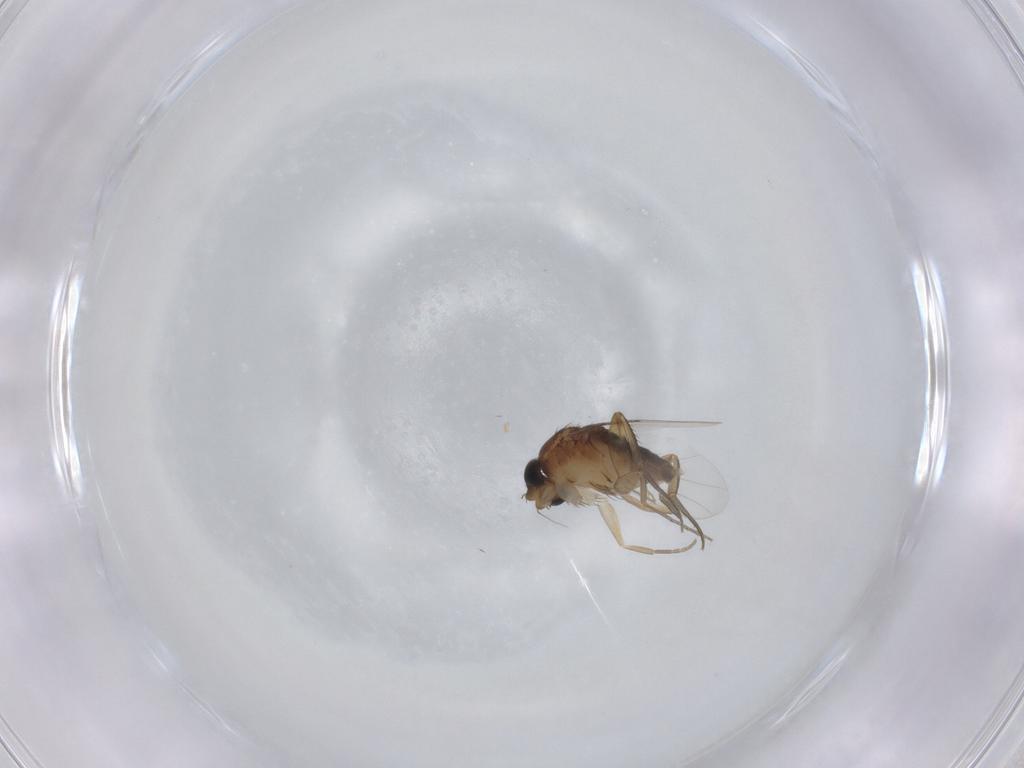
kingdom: Animalia
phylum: Arthropoda
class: Insecta
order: Diptera
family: Phoridae
